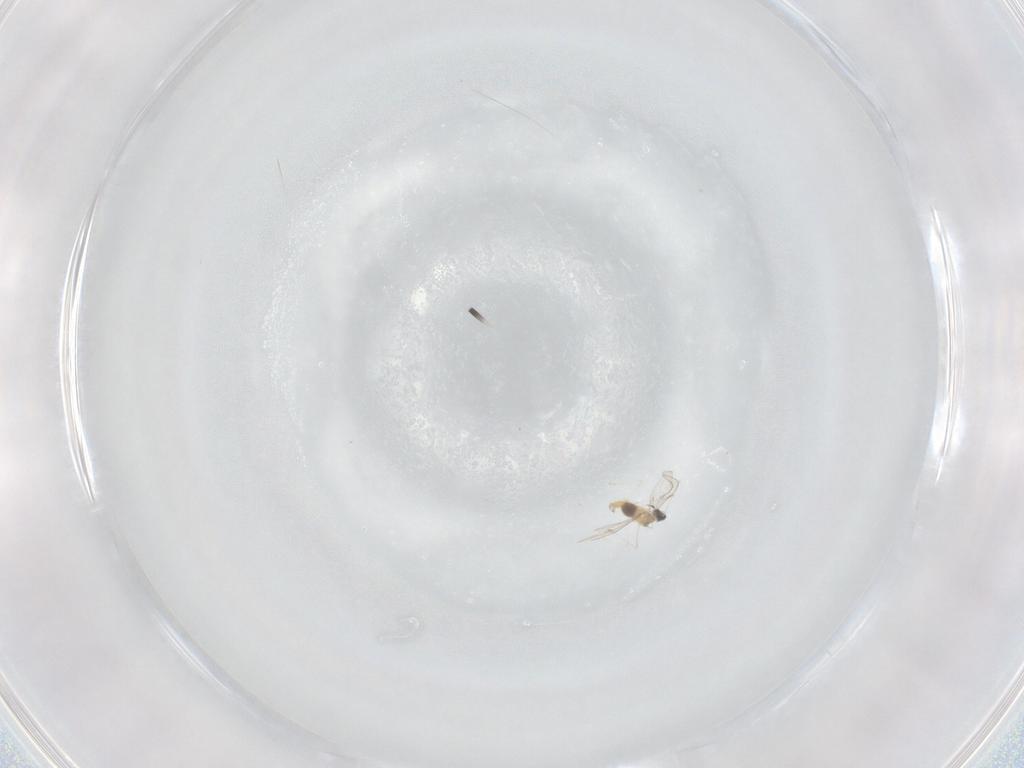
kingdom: Animalia
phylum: Arthropoda
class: Insecta
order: Diptera
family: Cecidomyiidae
